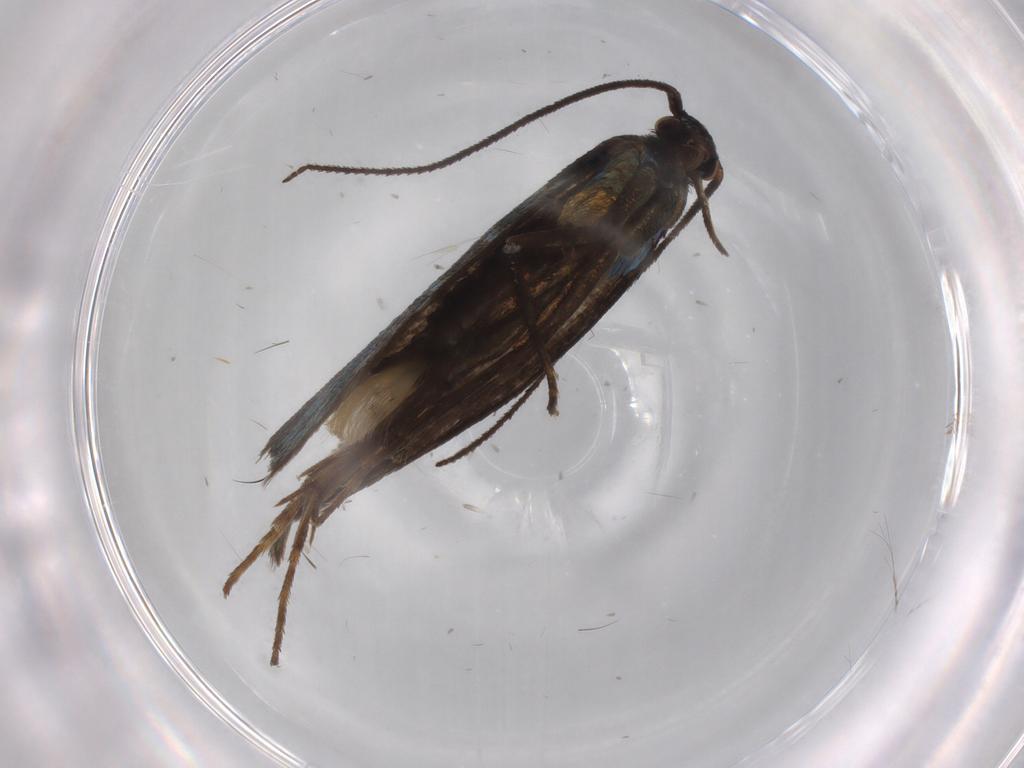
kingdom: Animalia
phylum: Arthropoda
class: Insecta
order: Lepidoptera
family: Argyresthiidae
